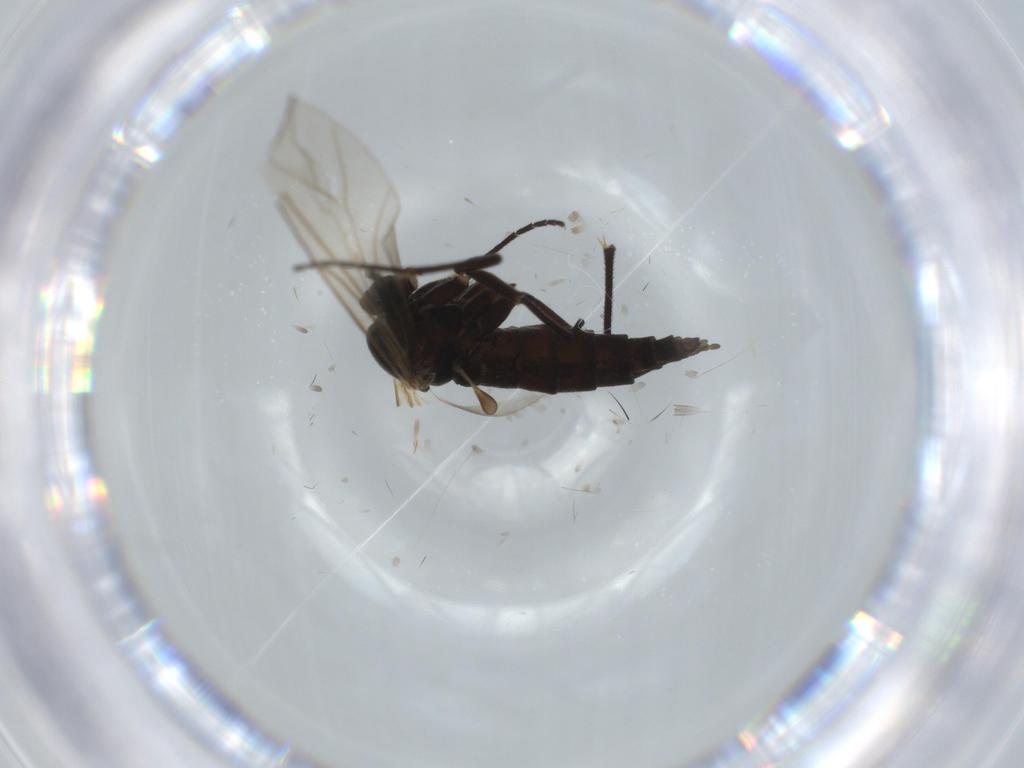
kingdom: Animalia
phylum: Arthropoda
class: Insecta
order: Diptera
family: Sciaridae
